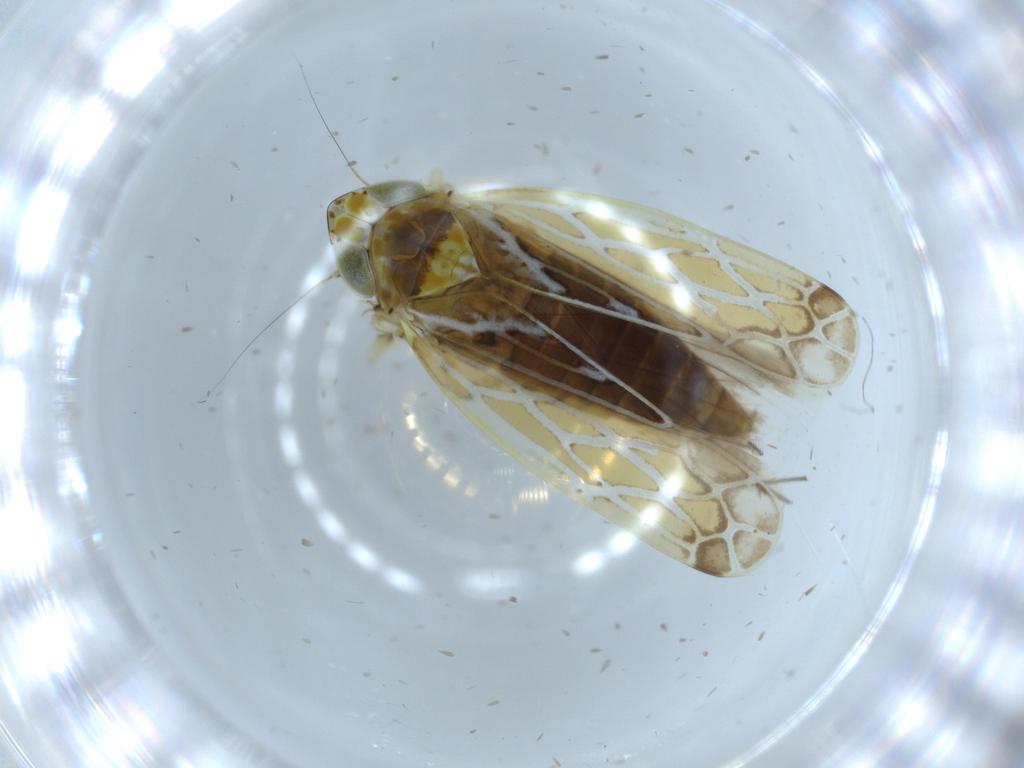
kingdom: Animalia
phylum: Arthropoda
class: Insecta
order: Hemiptera
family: Cicadellidae
